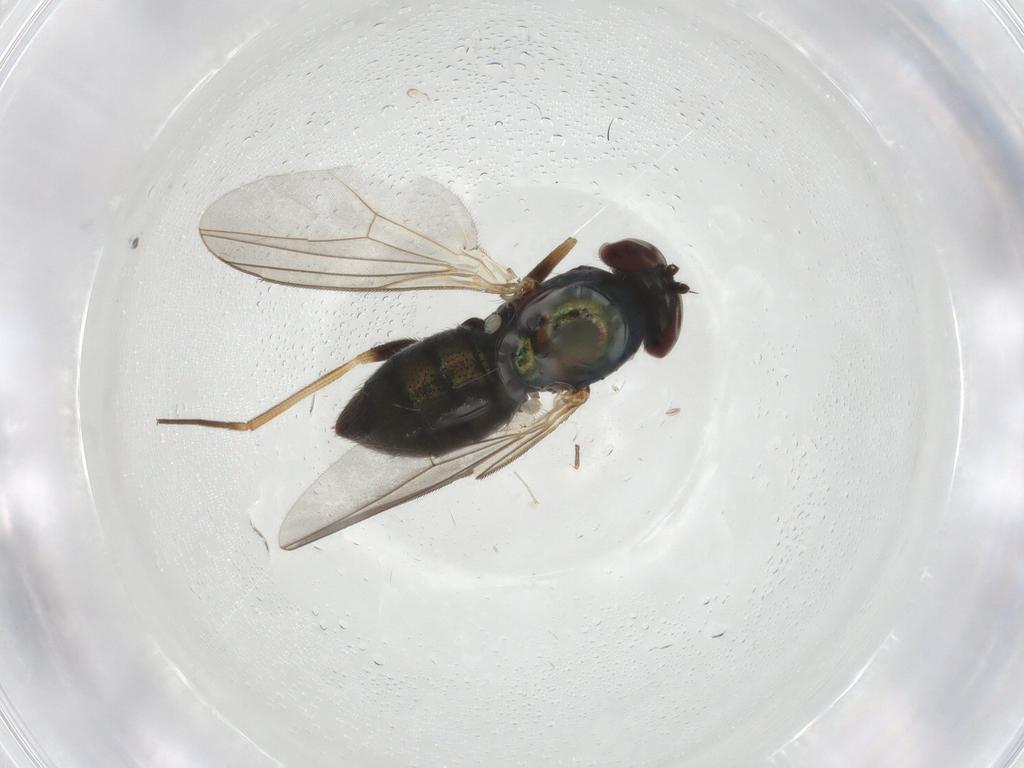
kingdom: Animalia
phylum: Arthropoda
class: Insecta
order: Diptera
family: Dolichopodidae
